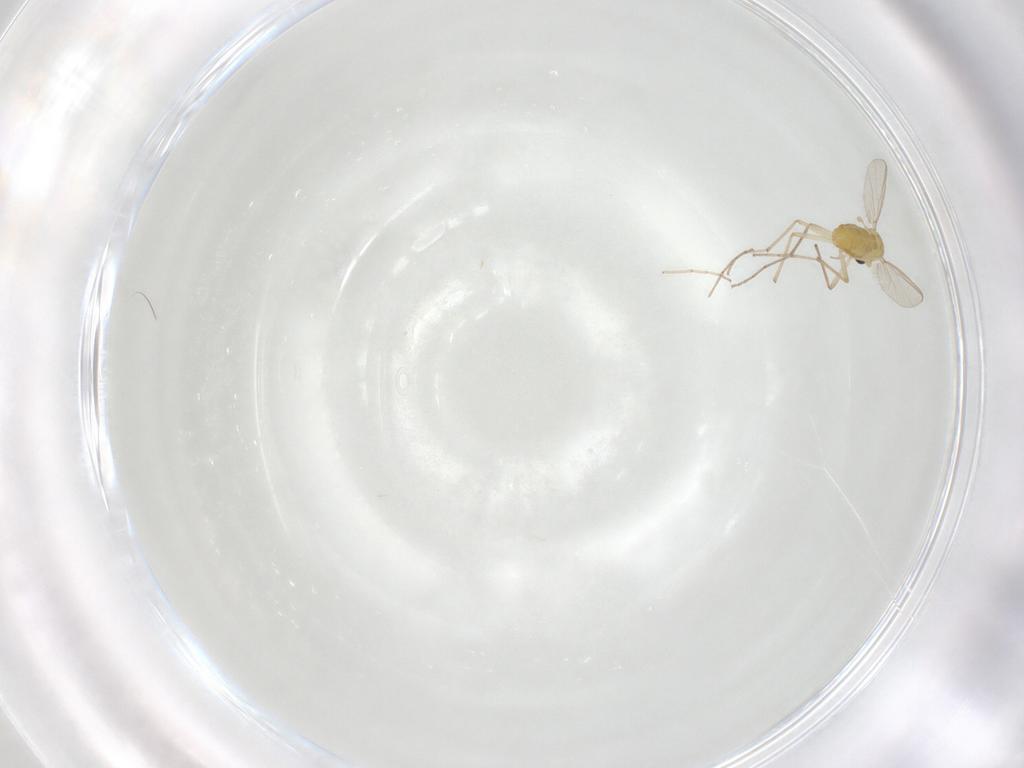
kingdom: Animalia
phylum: Arthropoda
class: Insecta
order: Diptera
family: Chironomidae
